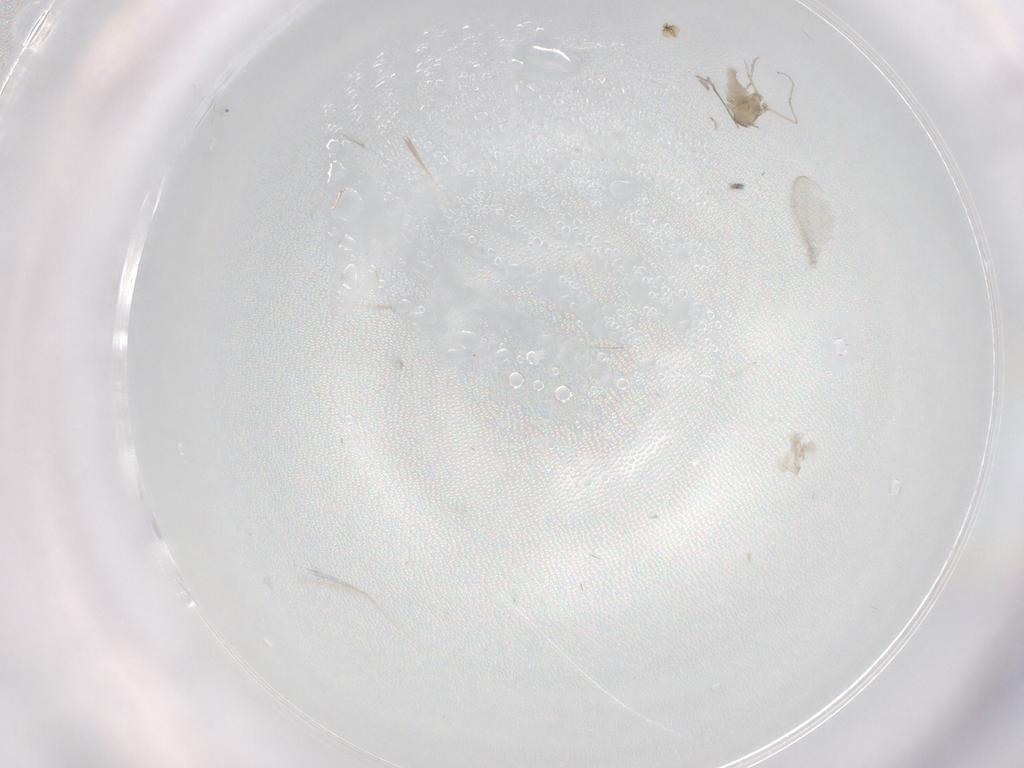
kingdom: Animalia
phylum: Arthropoda
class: Insecta
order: Diptera
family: Cecidomyiidae
